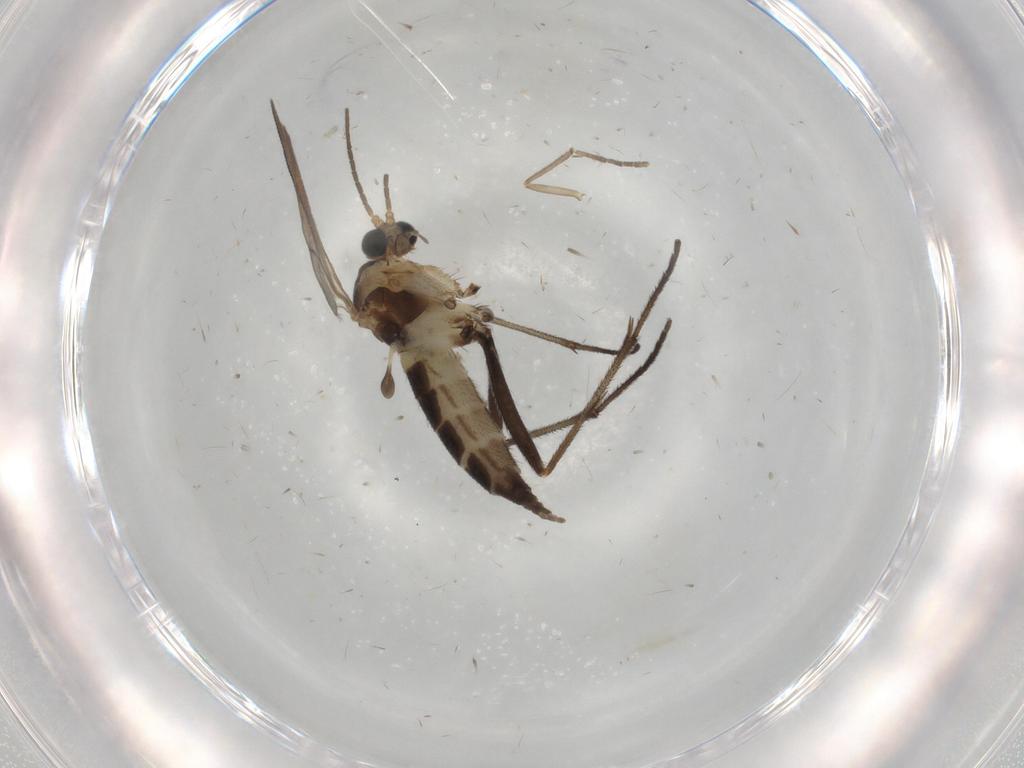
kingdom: Animalia
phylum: Arthropoda
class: Insecta
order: Diptera
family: Sciaridae
